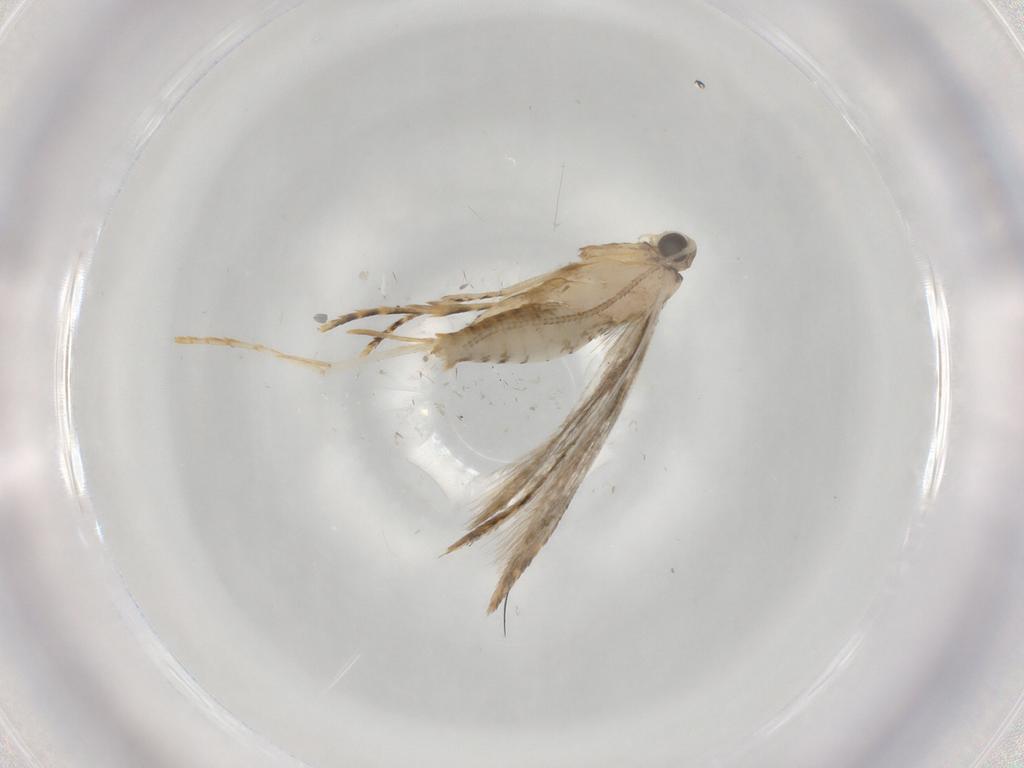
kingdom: Animalia
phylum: Arthropoda
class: Insecta
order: Lepidoptera
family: Tineidae
